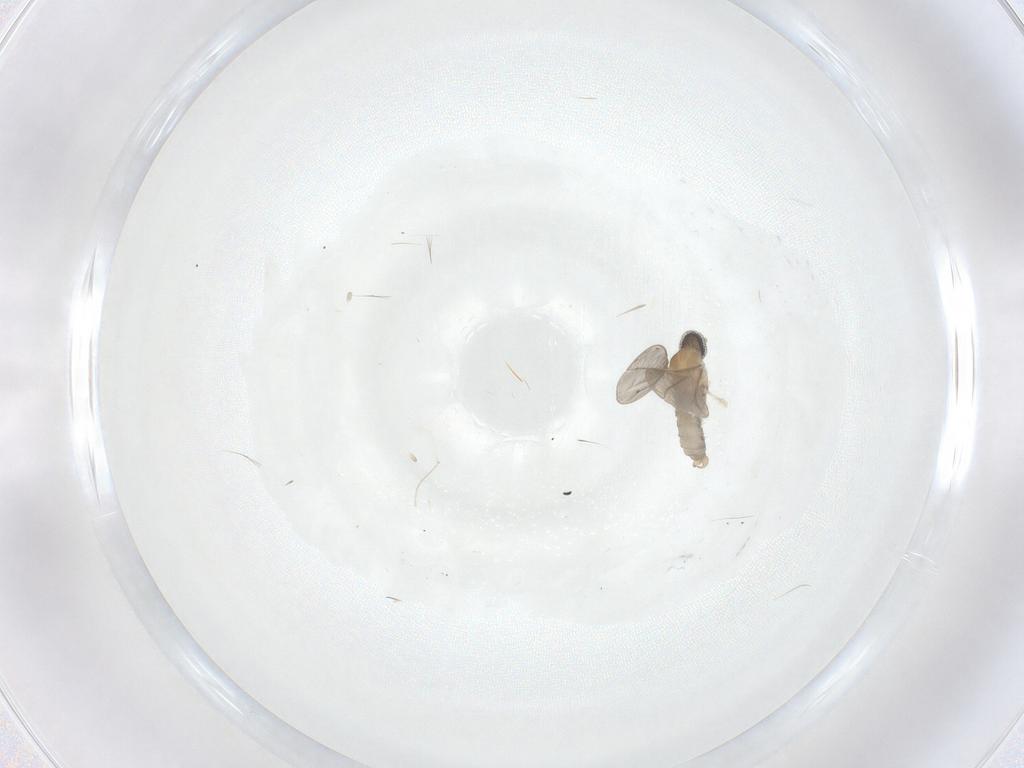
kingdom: Animalia
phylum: Arthropoda
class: Insecta
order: Diptera
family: Cecidomyiidae
